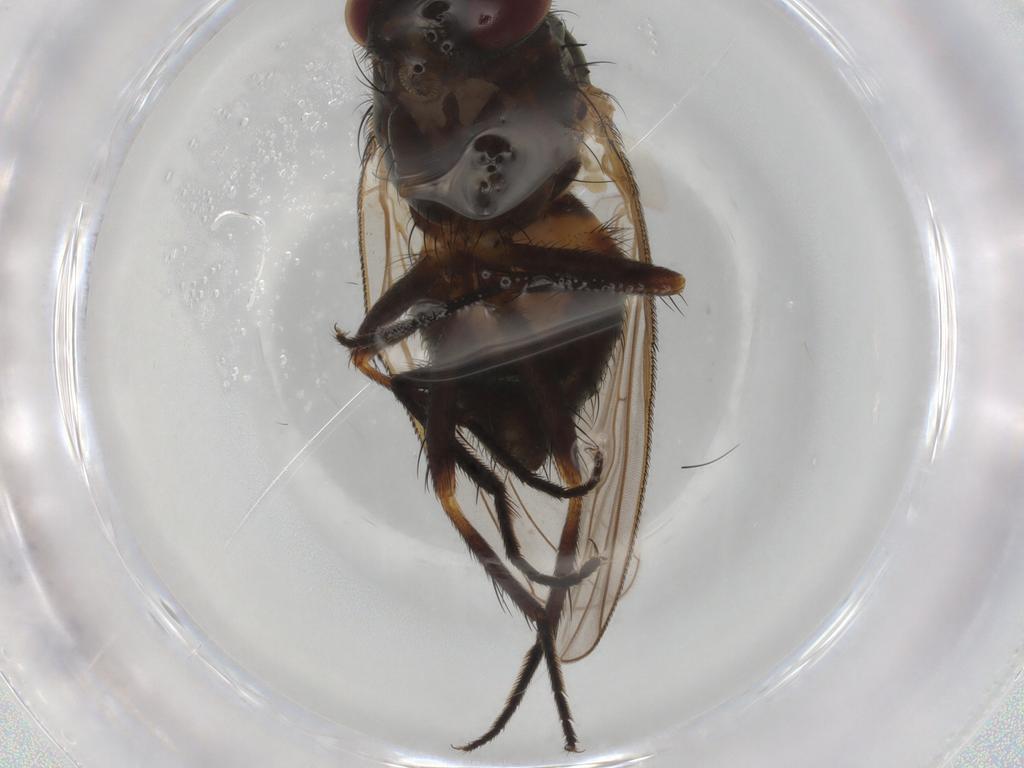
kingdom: Animalia
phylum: Arthropoda
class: Insecta
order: Diptera
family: Fannia
